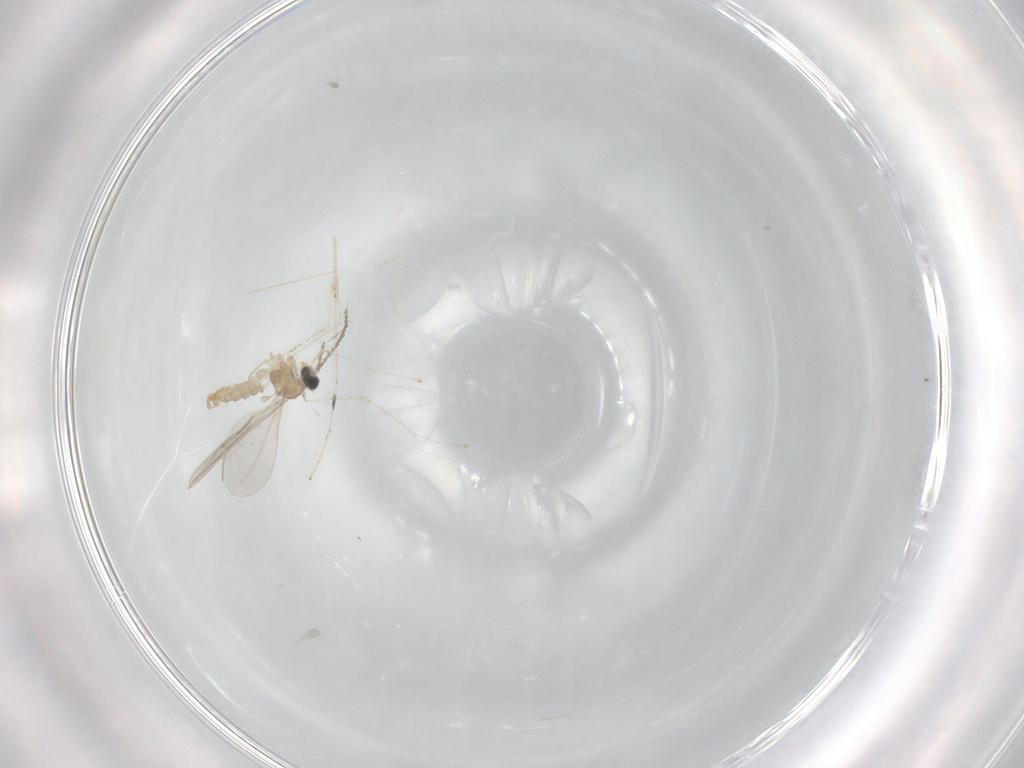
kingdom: Animalia
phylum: Arthropoda
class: Insecta
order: Diptera
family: Cecidomyiidae
